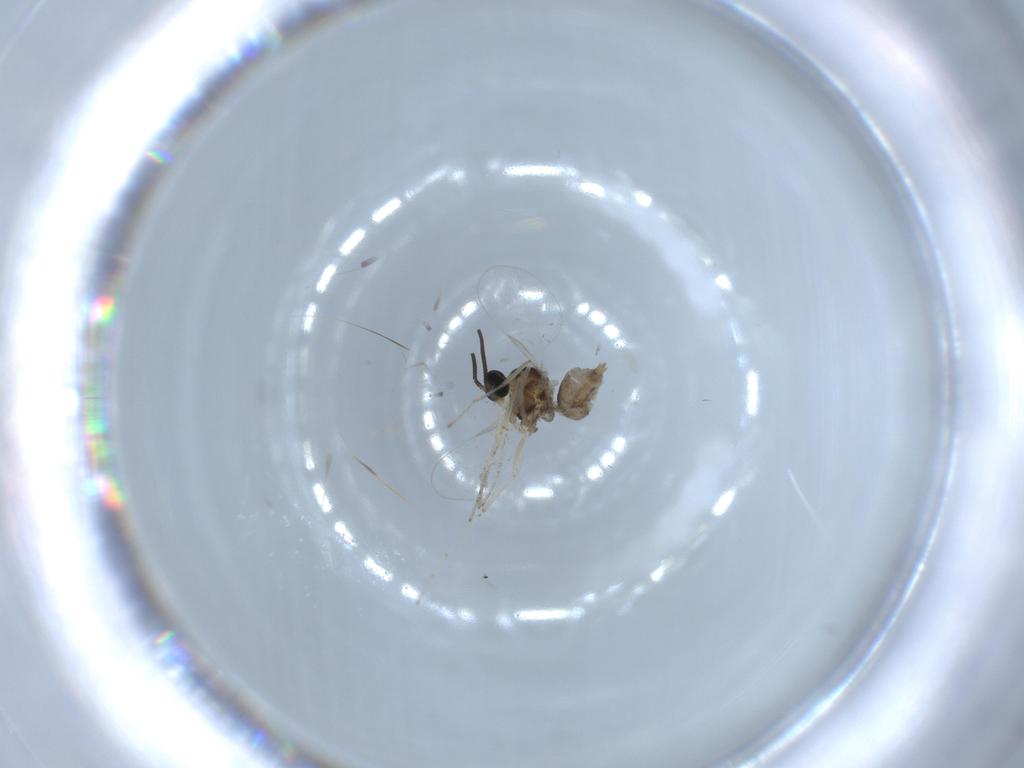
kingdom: Animalia
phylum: Arthropoda
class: Insecta
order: Diptera
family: Cecidomyiidae
